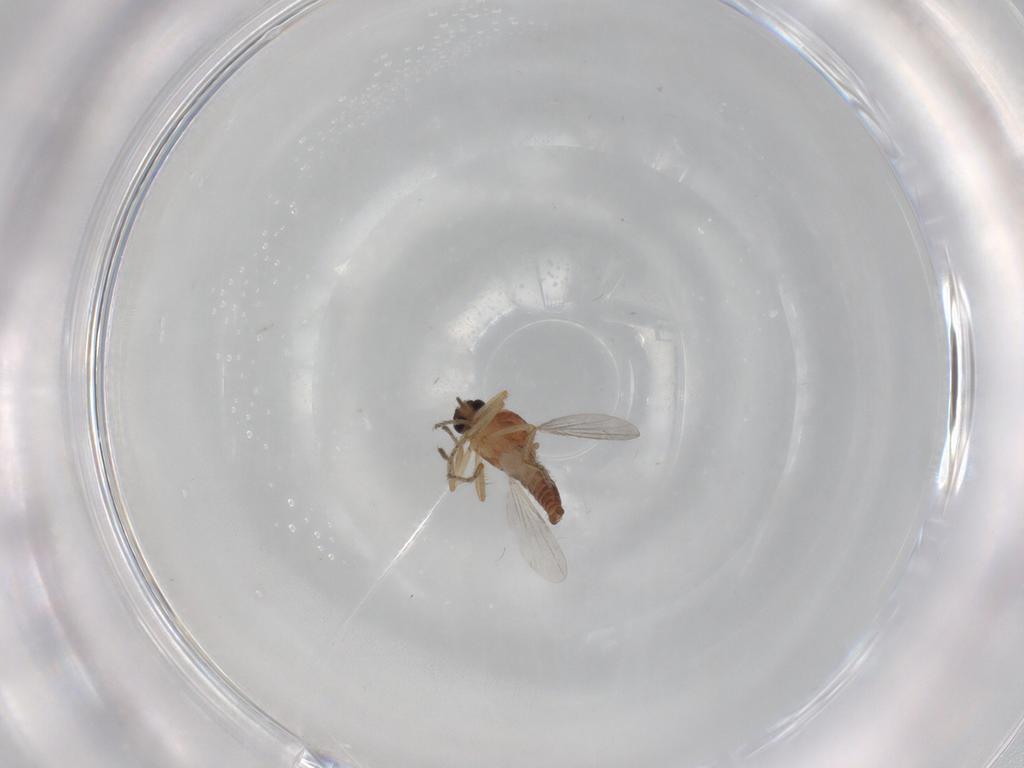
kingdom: Animalia
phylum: Arthropoda
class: Insecta
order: Diptera
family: Ceratopogonidae
